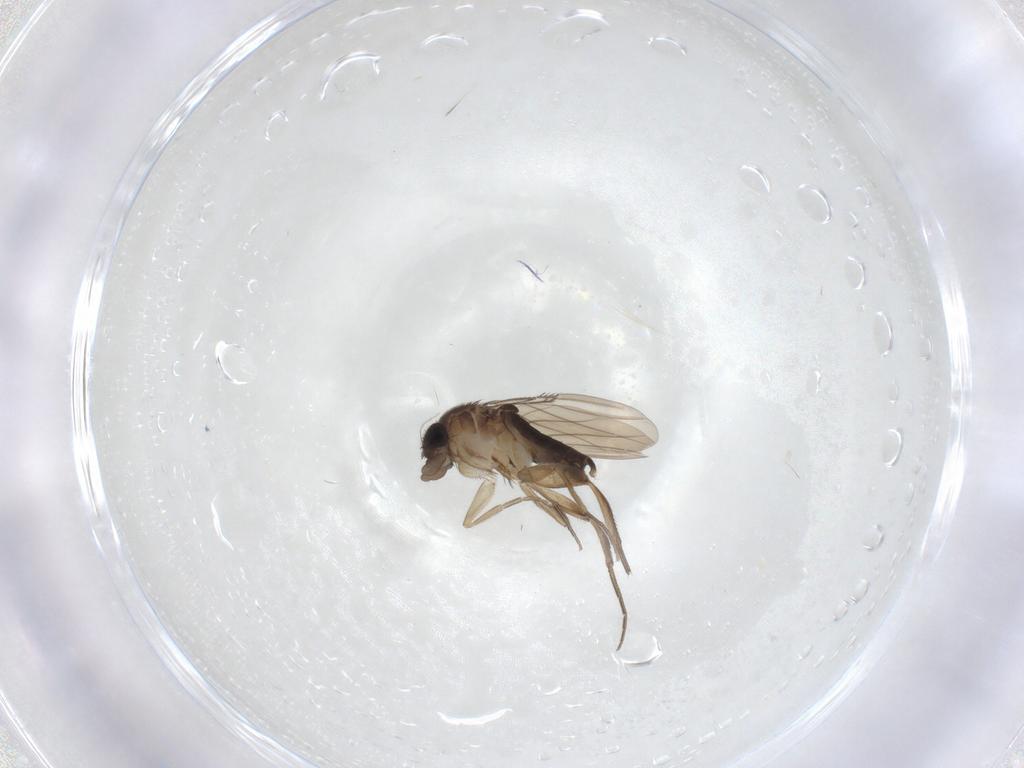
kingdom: Animalia
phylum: Arthropoda
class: Insecta
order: Diptera
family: Phoridae
